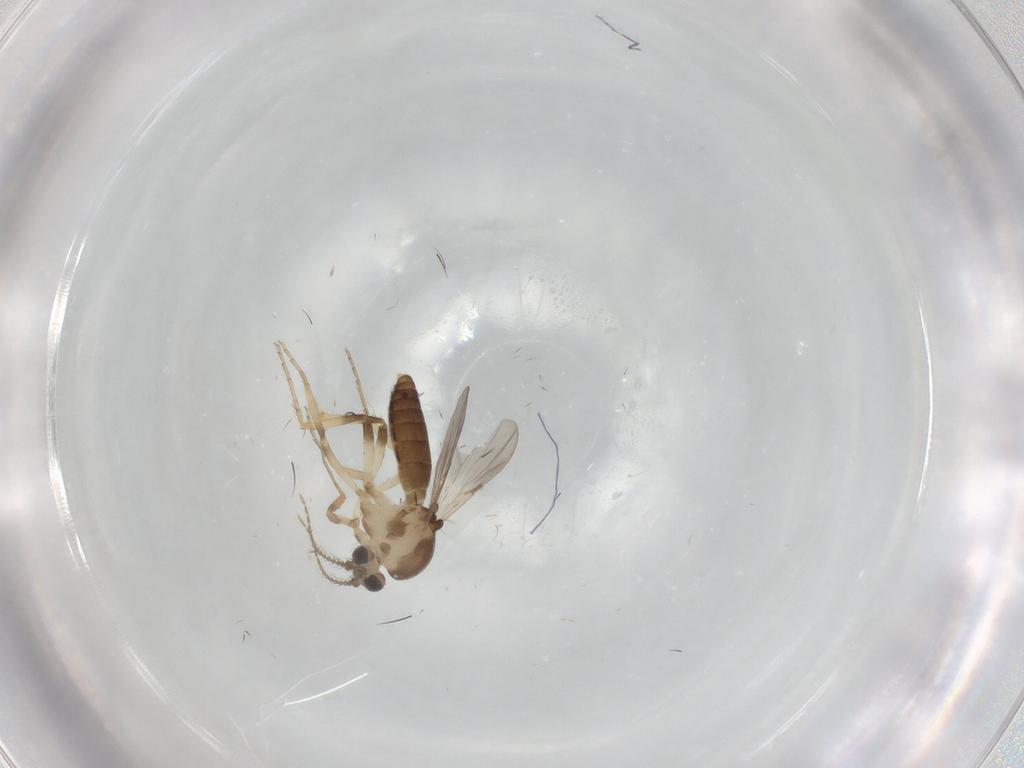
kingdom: Animalia
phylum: Arthropoda
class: Insecta
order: Diptera
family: Ceratopogonidae
